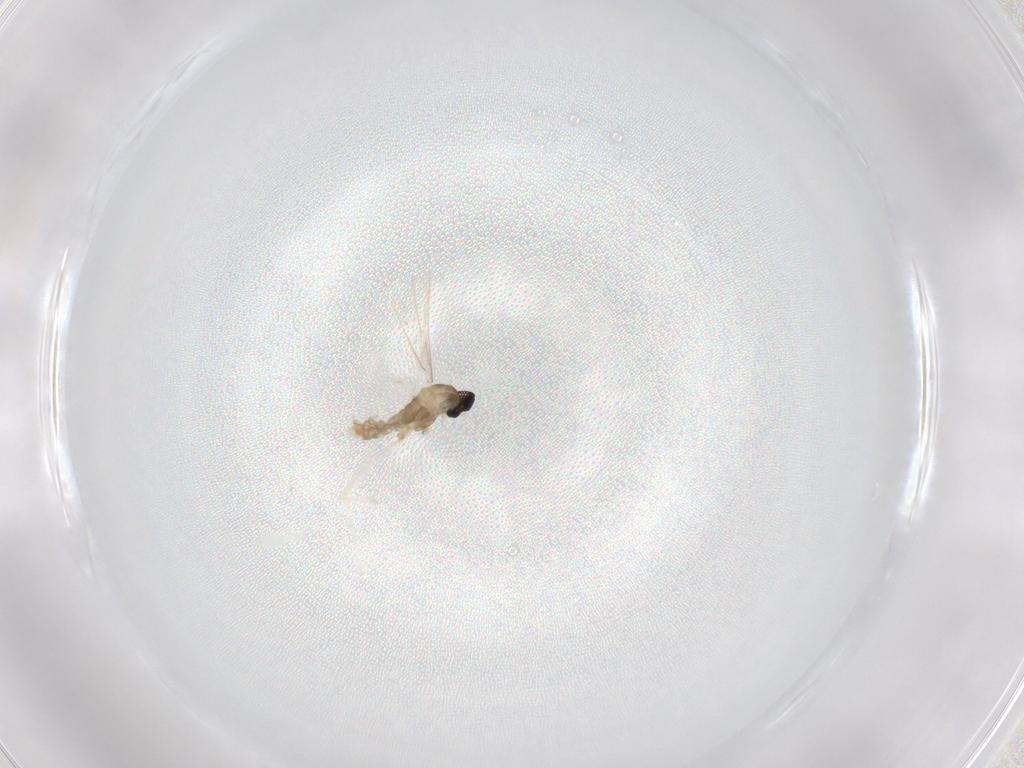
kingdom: Animalia
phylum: Arthropoda
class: Insecta
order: Diptera
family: Cecidomyiidae
